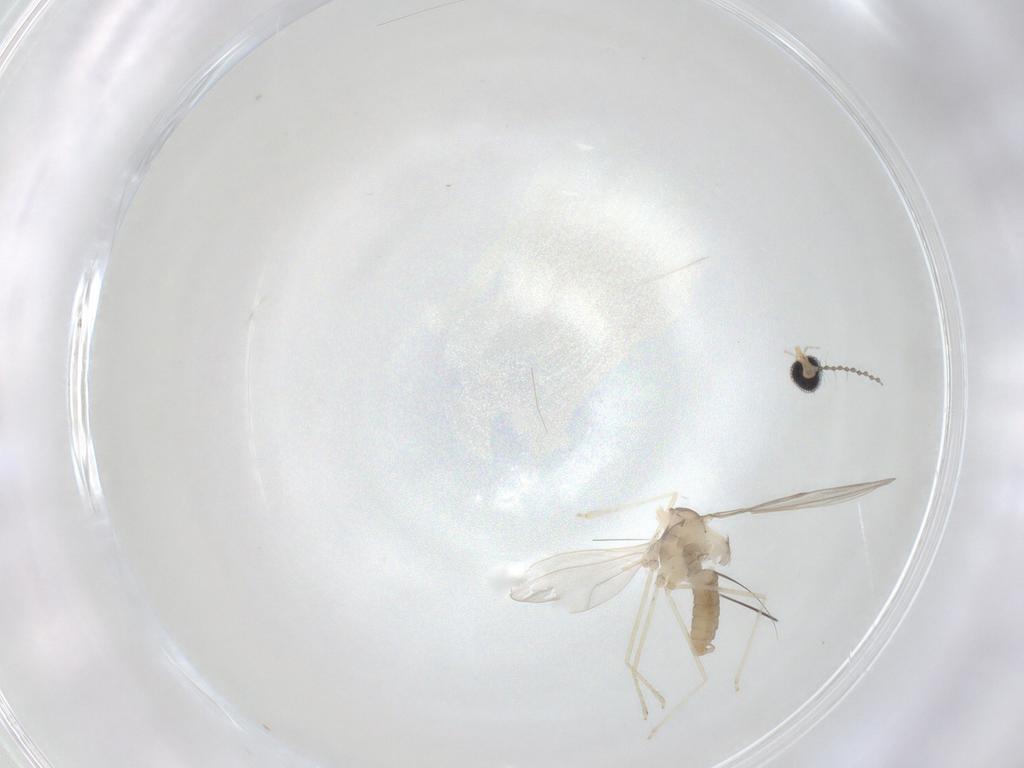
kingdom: Animalia
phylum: Arthropoda
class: Insecta
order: Diptera
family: Cecidomyiidae
